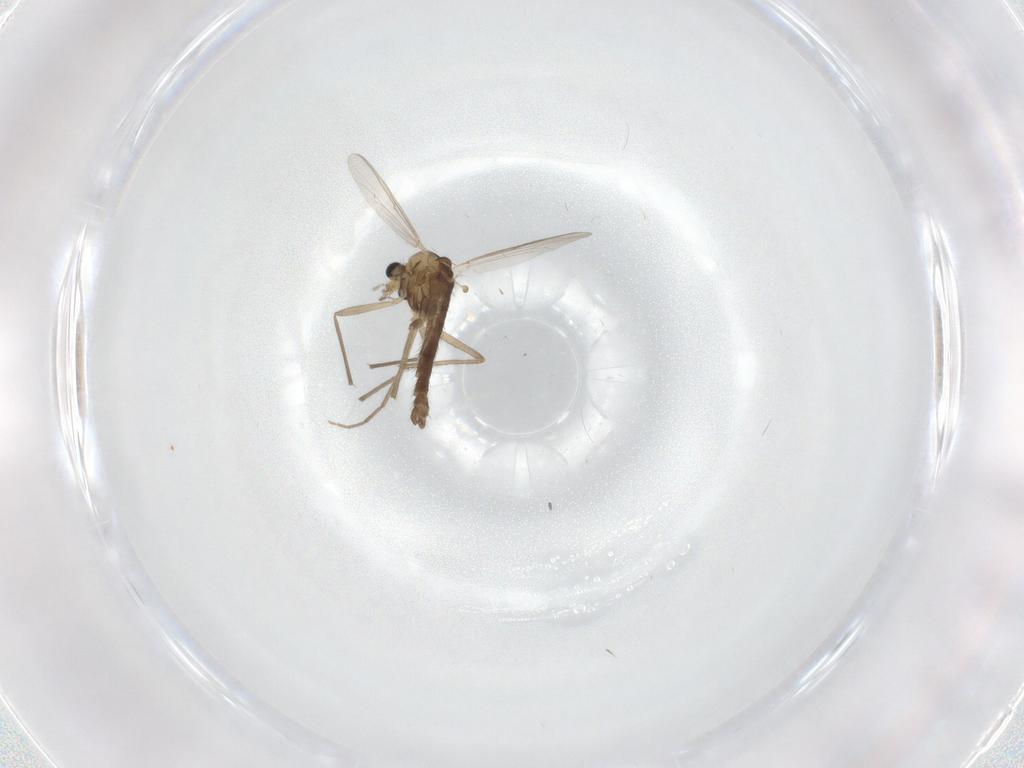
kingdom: Animalia
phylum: Arthropoda
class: Insecta
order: Diptera
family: Chironomidae
